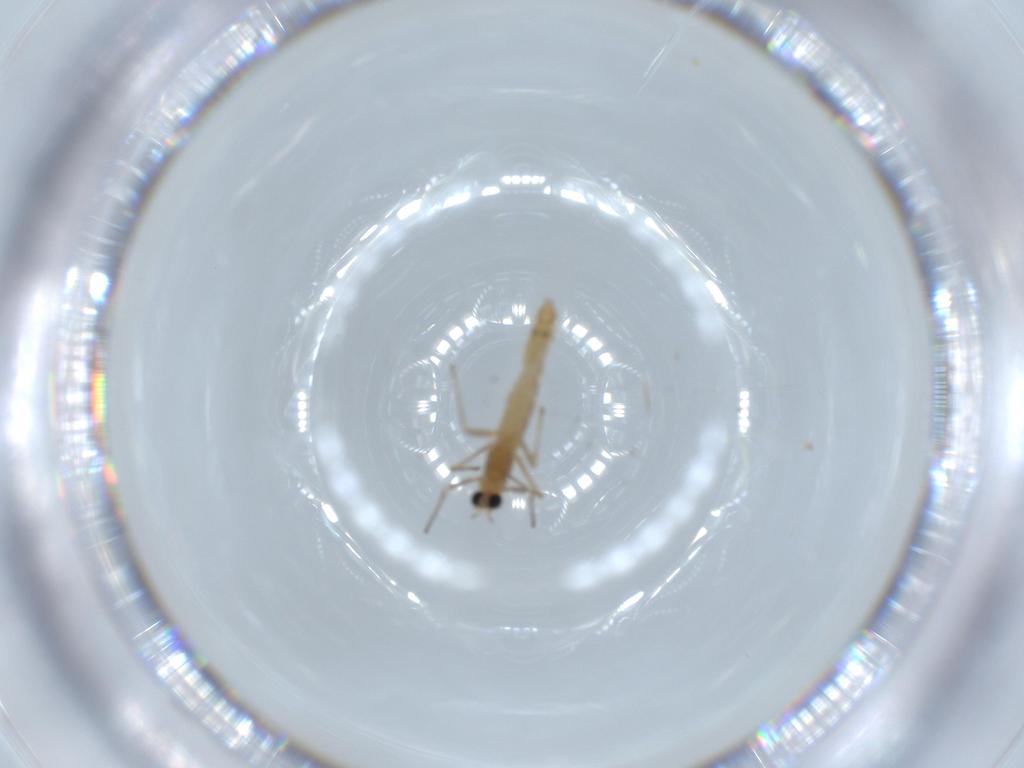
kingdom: Animalia
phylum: Arthropoda
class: Insecta
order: Diptera
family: Chironomidae
